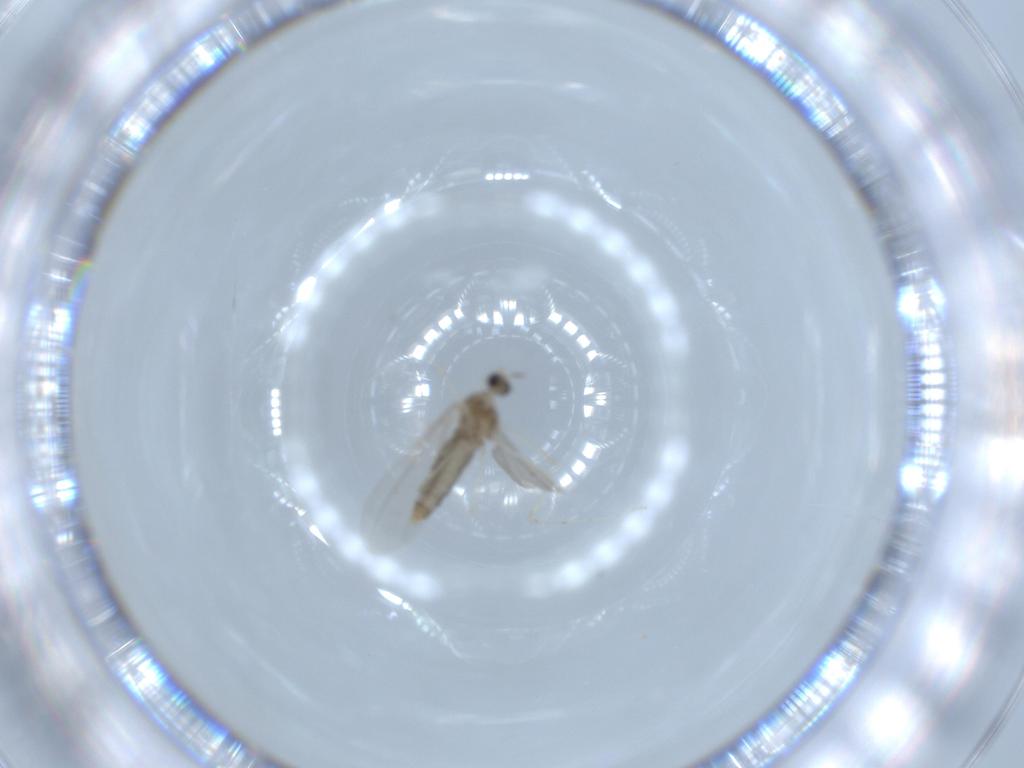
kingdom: Animalia
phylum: Arthropoda
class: Insecta
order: Diptera
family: Cecidomyiidae
